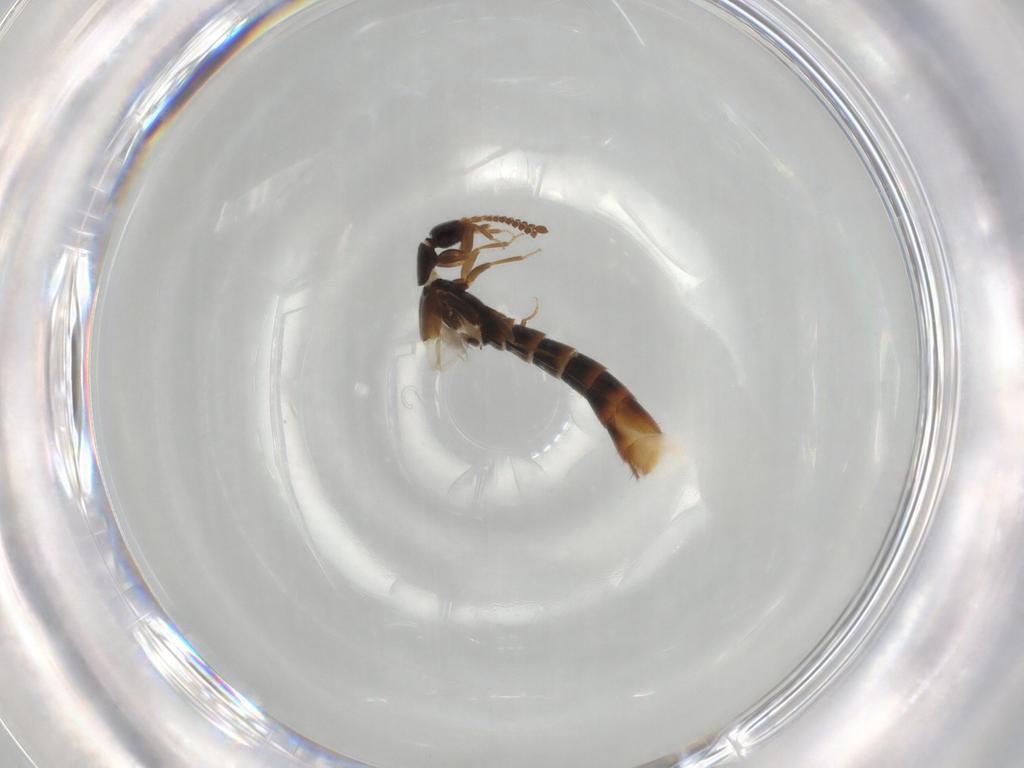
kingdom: Animalia
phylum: Arthropoda
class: Insecta
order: Coleoptera
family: Staphylinidae
